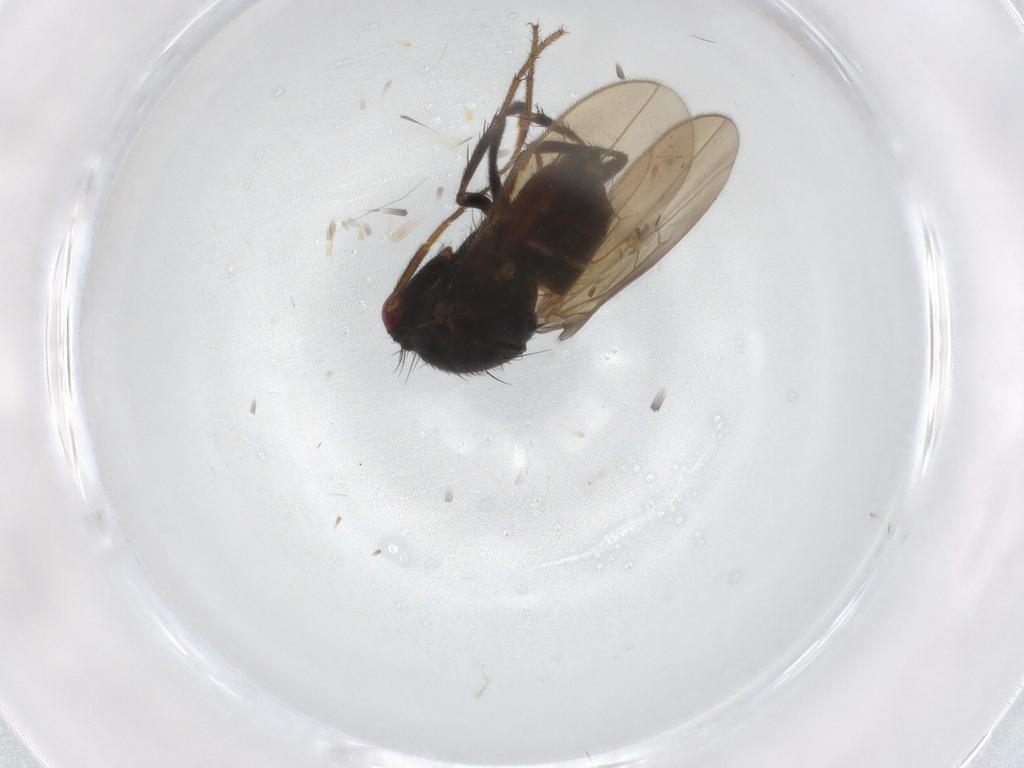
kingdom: Animalia
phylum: Arthropoda
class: Insecta
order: Diptera
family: Sphaeroceridae
